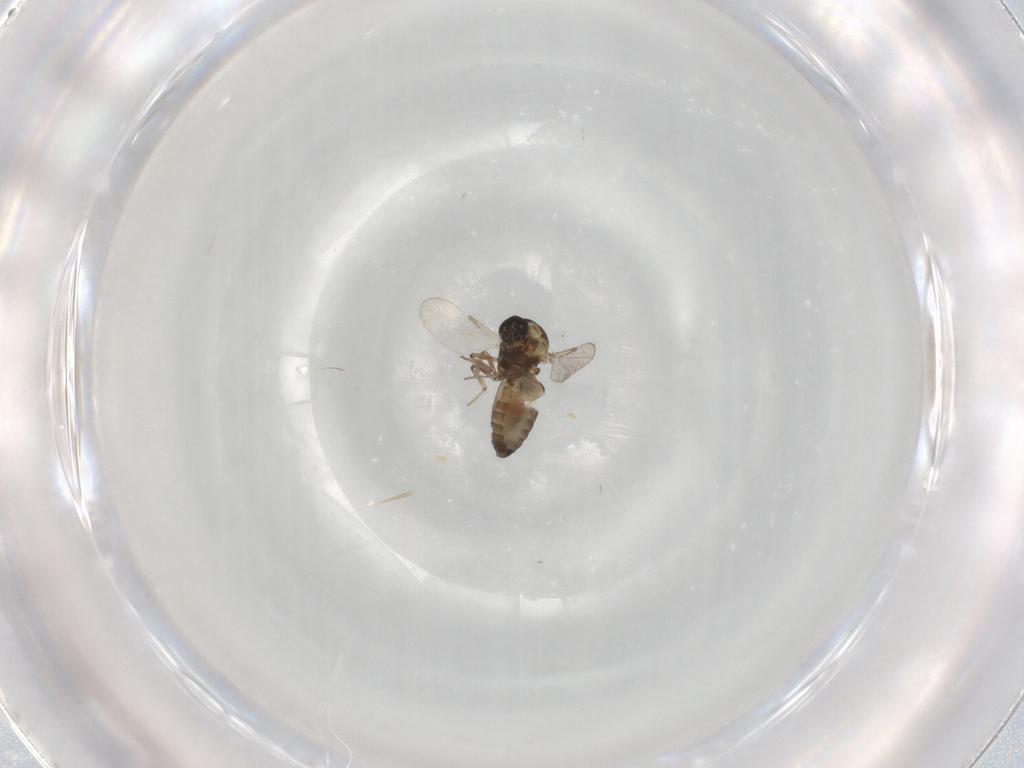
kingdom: Animalia
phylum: Arthropoda
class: Insecta
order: Diptera
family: Ceratopogonidae
